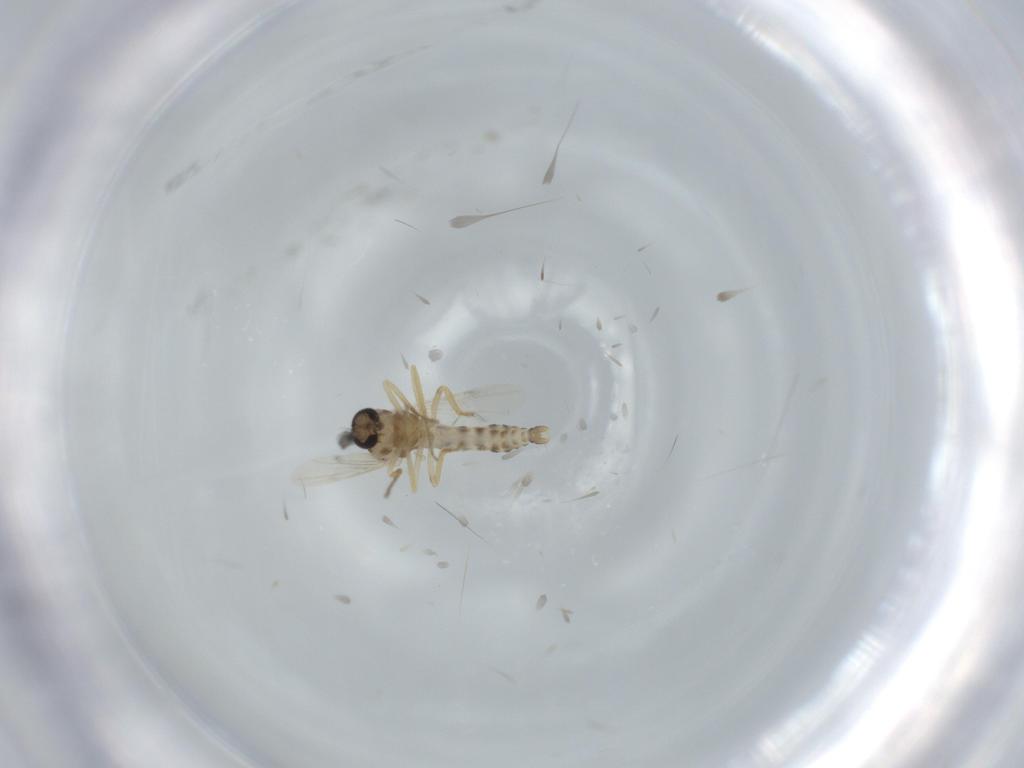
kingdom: Animalia
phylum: Arthropoda
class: Insecta
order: Diptera
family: Ceratopogonidae
